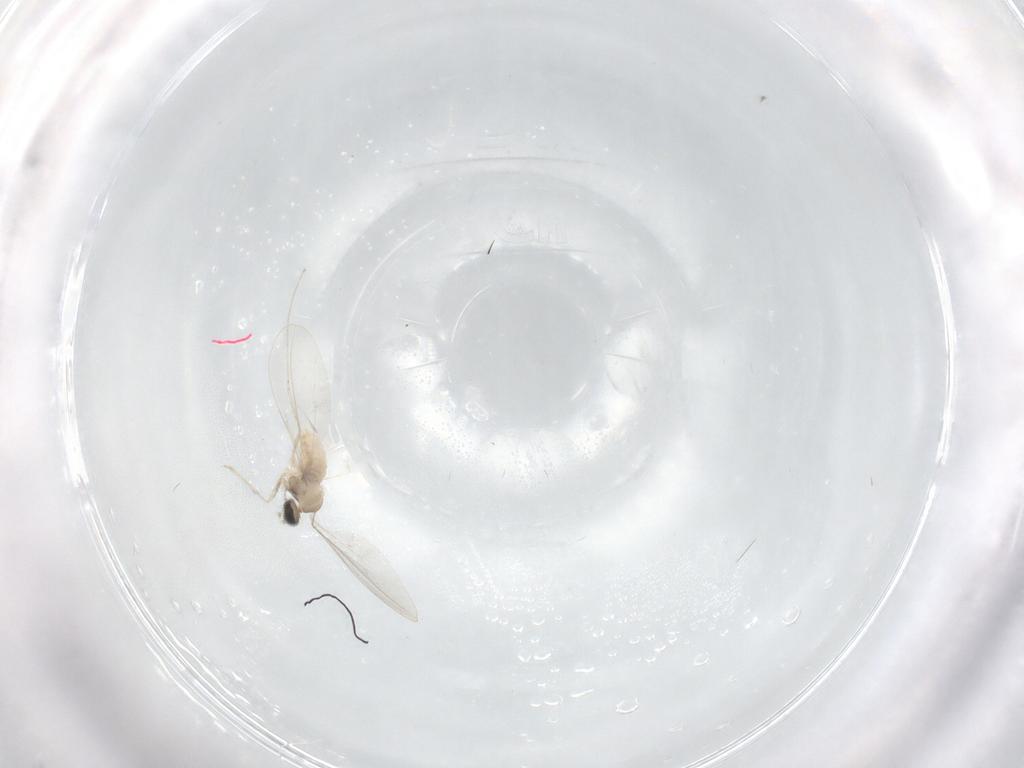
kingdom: Animalia
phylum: Arthropoda
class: Insecta
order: Diptera
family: Cecidomyiidae
